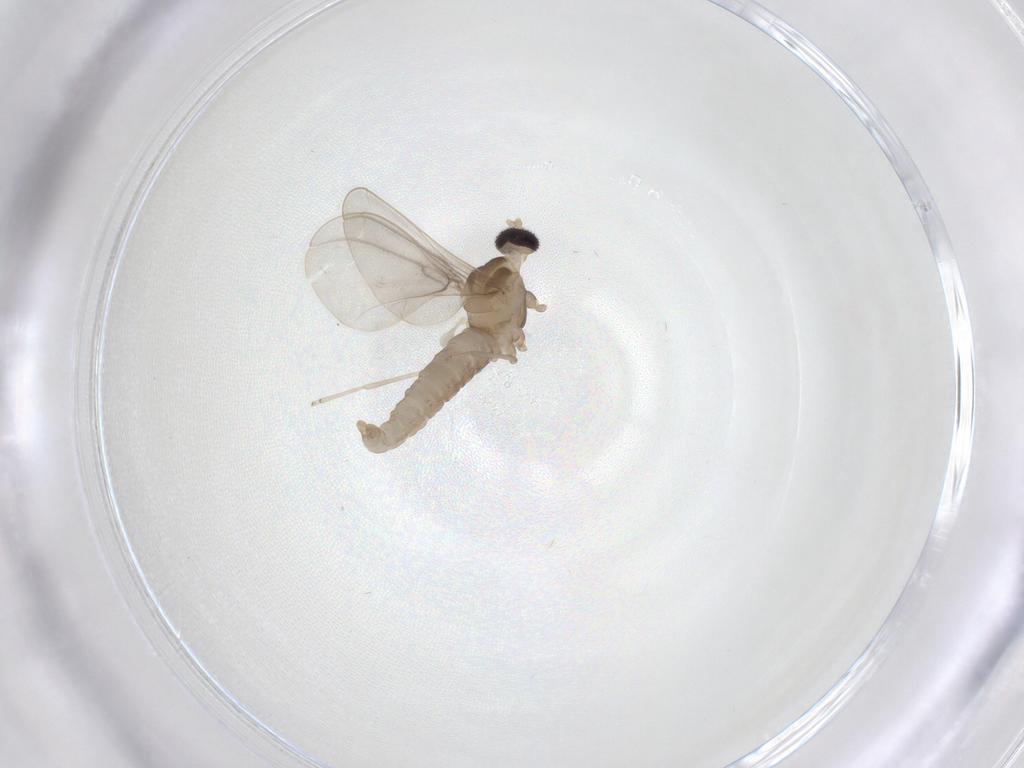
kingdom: Animalia
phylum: Arthropoda
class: Insecta
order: Diptera
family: Cecidomyiidae
